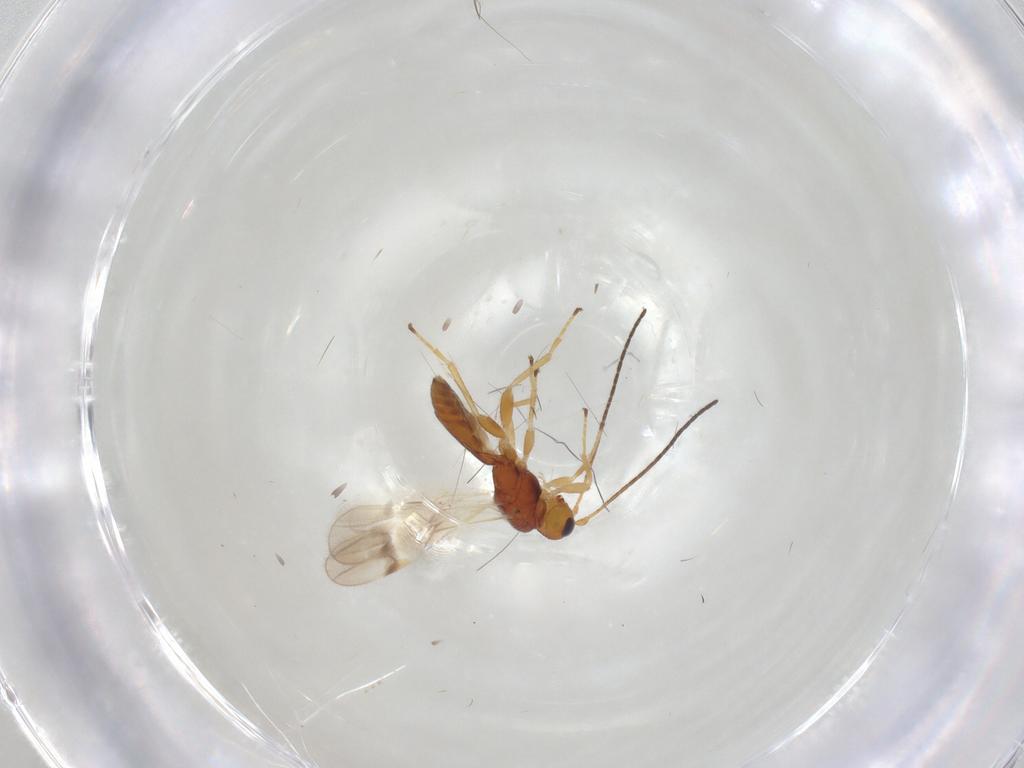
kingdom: Animalia
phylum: Arthropoda
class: Insecta
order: Hymenoptera
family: Braconidae
